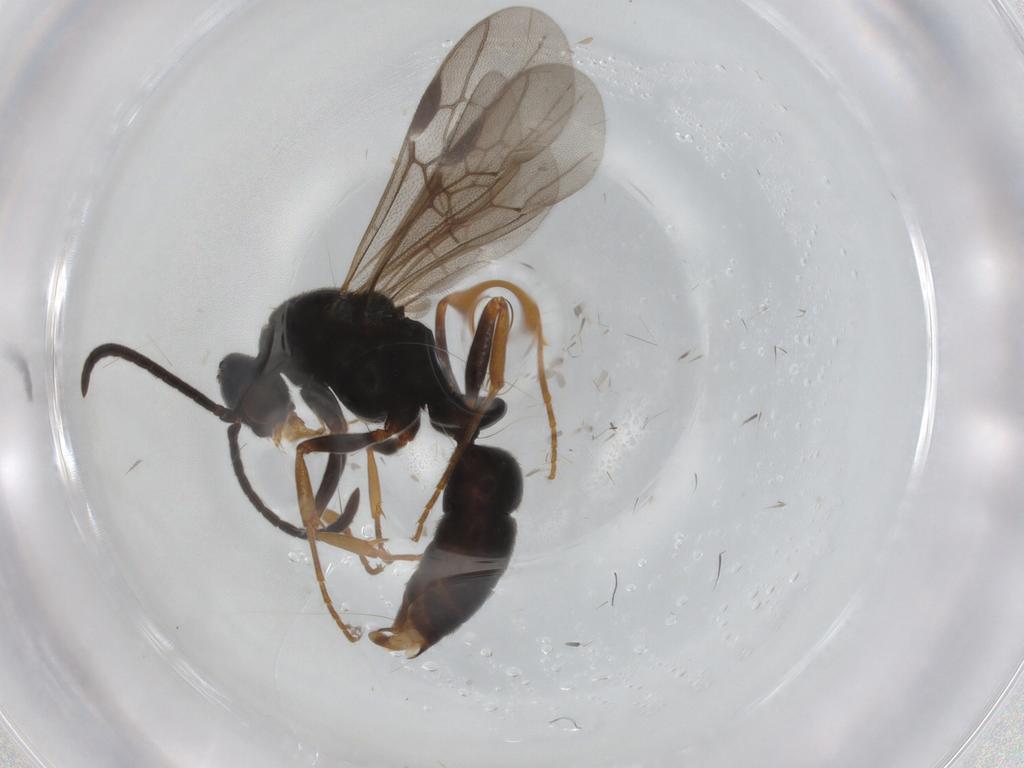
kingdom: Animalia
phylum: Arthropoda
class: Insecta
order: Hymenoptera
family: Formicidae
